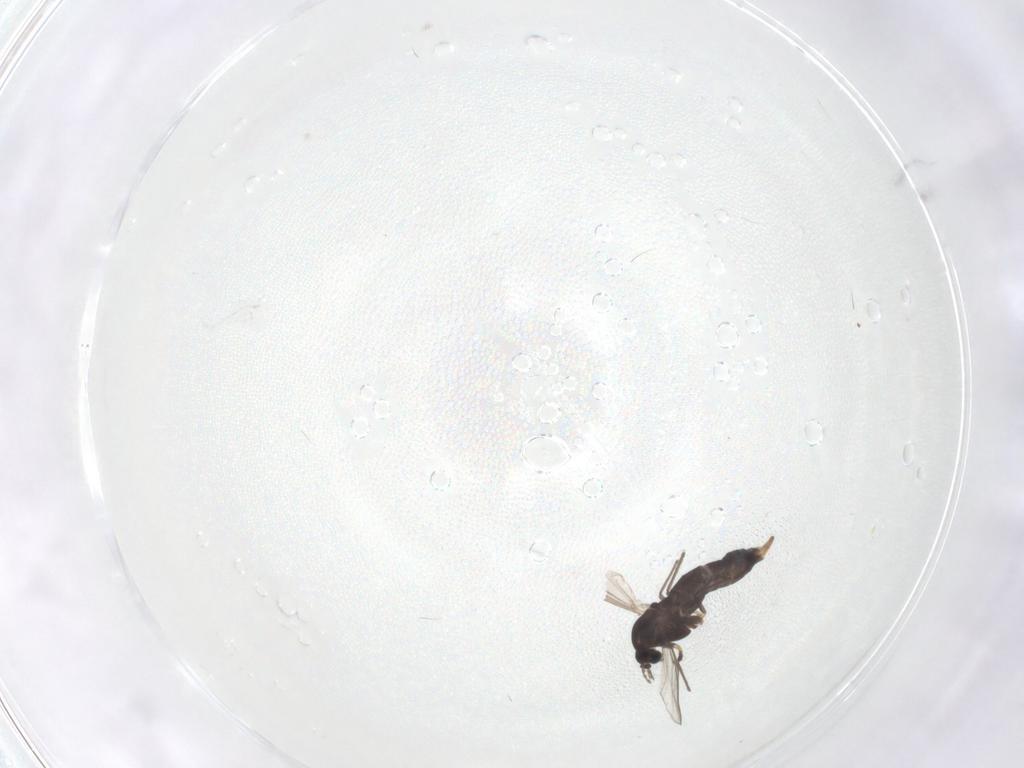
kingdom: Animalia
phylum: Arthropoda
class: Insecta
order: Diptera
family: Chironomidae
